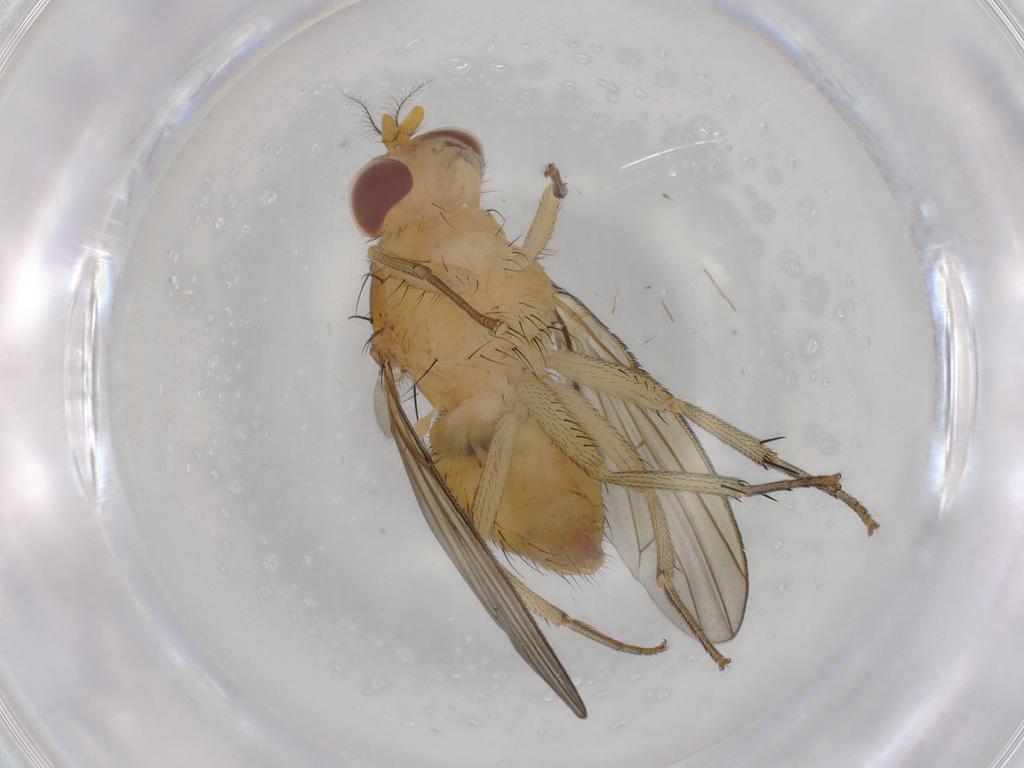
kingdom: Animalia
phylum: Arthropoda
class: Insecta
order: Diptera
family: Cecidomyiidae
